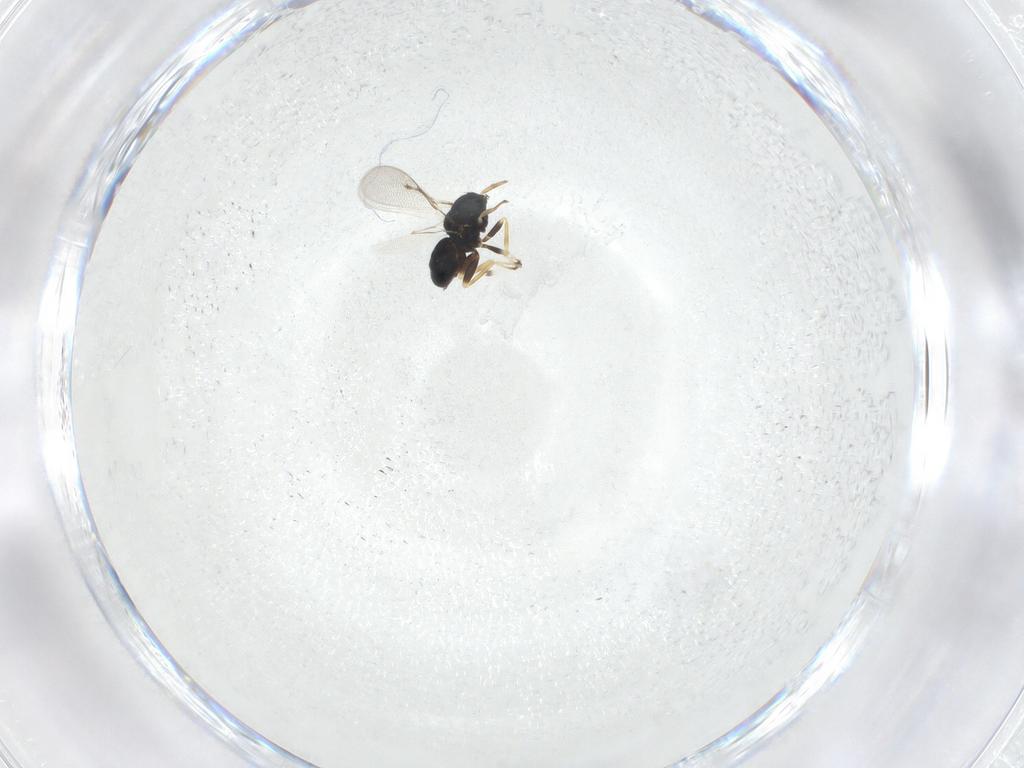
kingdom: Animalia
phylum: Arthropoda
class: Insecta
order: Hymenoptera
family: Eulophidae
